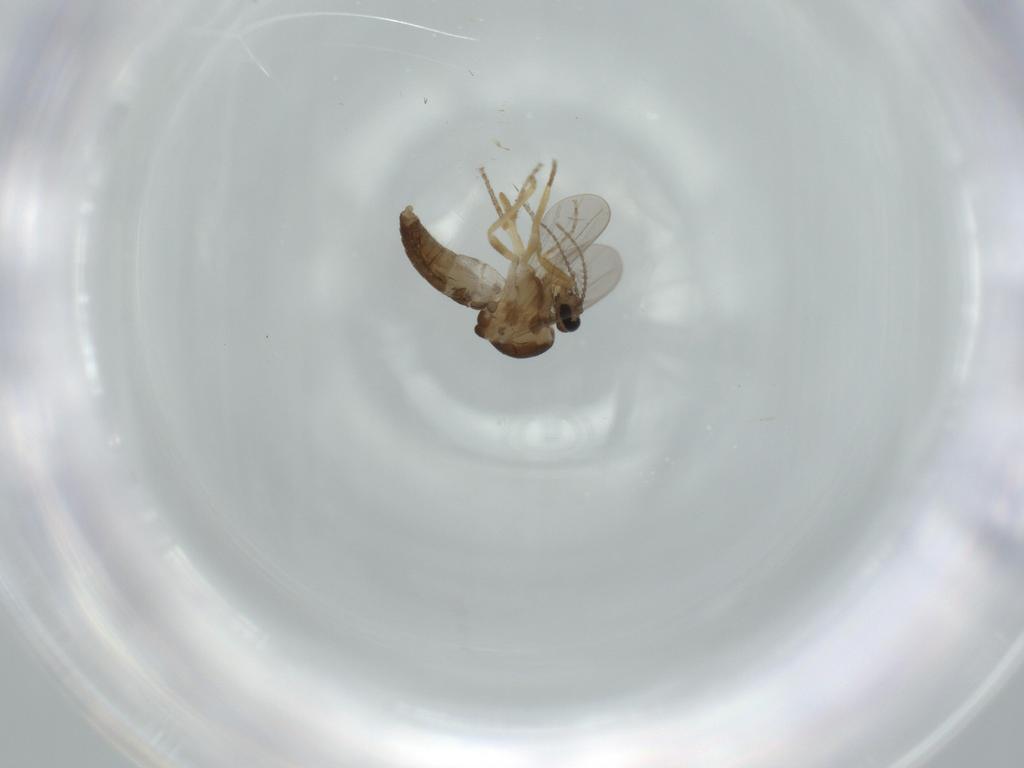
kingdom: Animalia
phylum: Arthropoda
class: Insecta
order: Diptera
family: Ceratopogonidae
